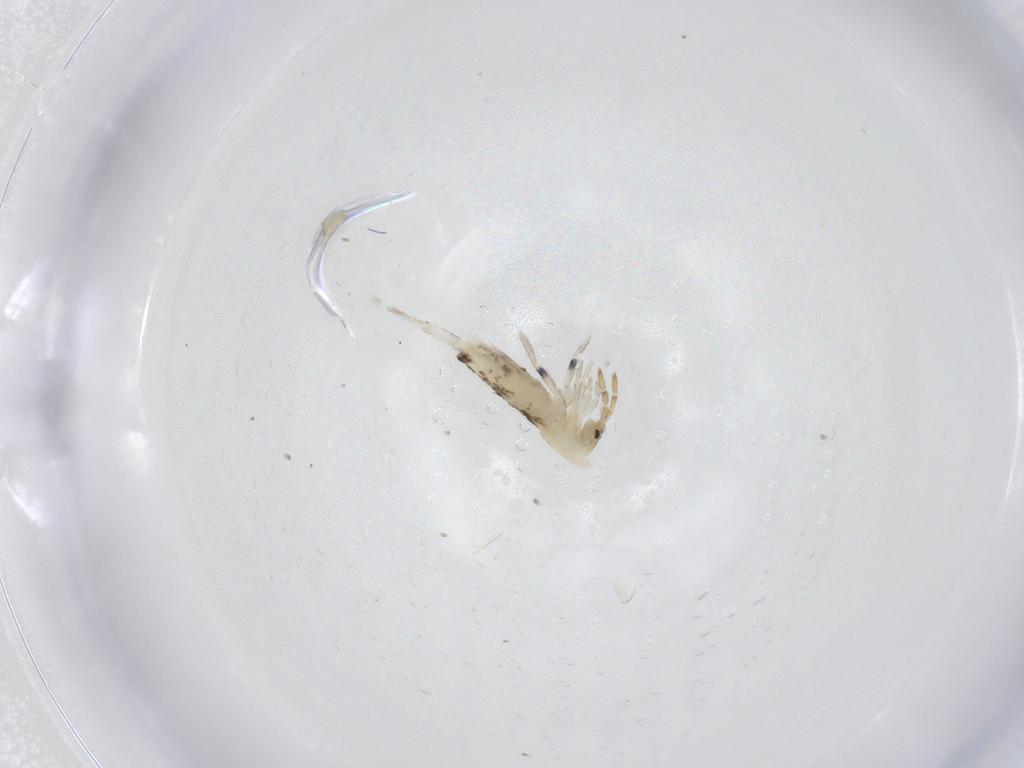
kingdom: Animalia
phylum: Arthropoda
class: Collembola
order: Entomobryomorpha
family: Entomobryidae
